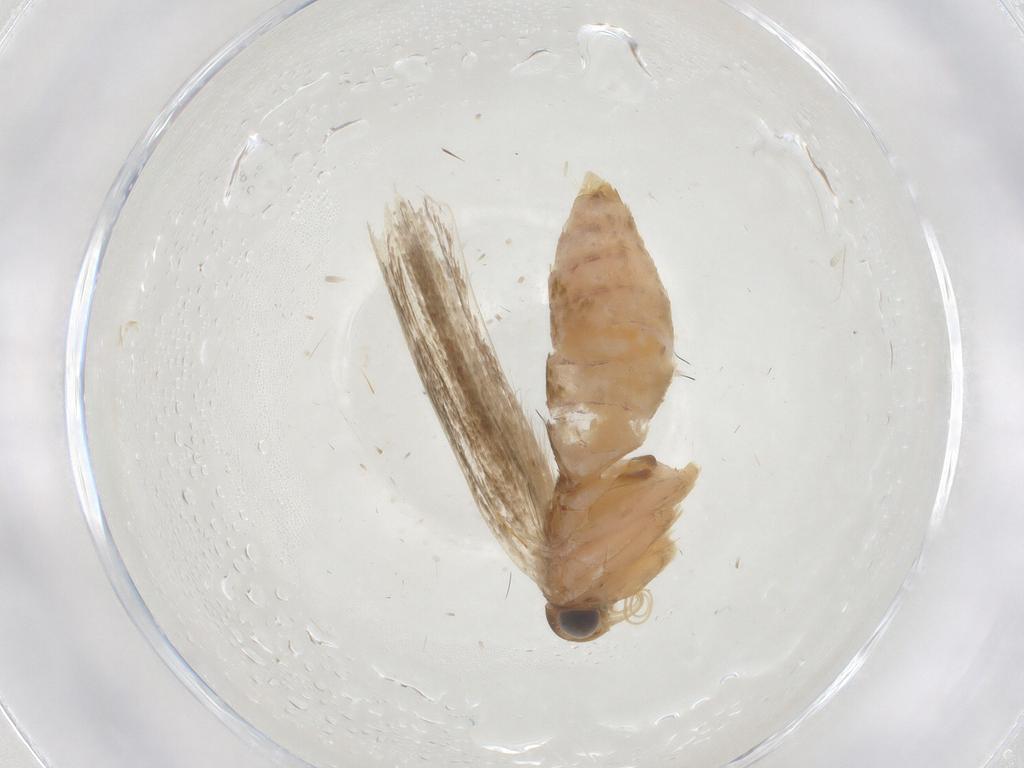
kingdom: Animalia
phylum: Arthropoda
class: Insecta
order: Lepidoptera
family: Gelechiidae
